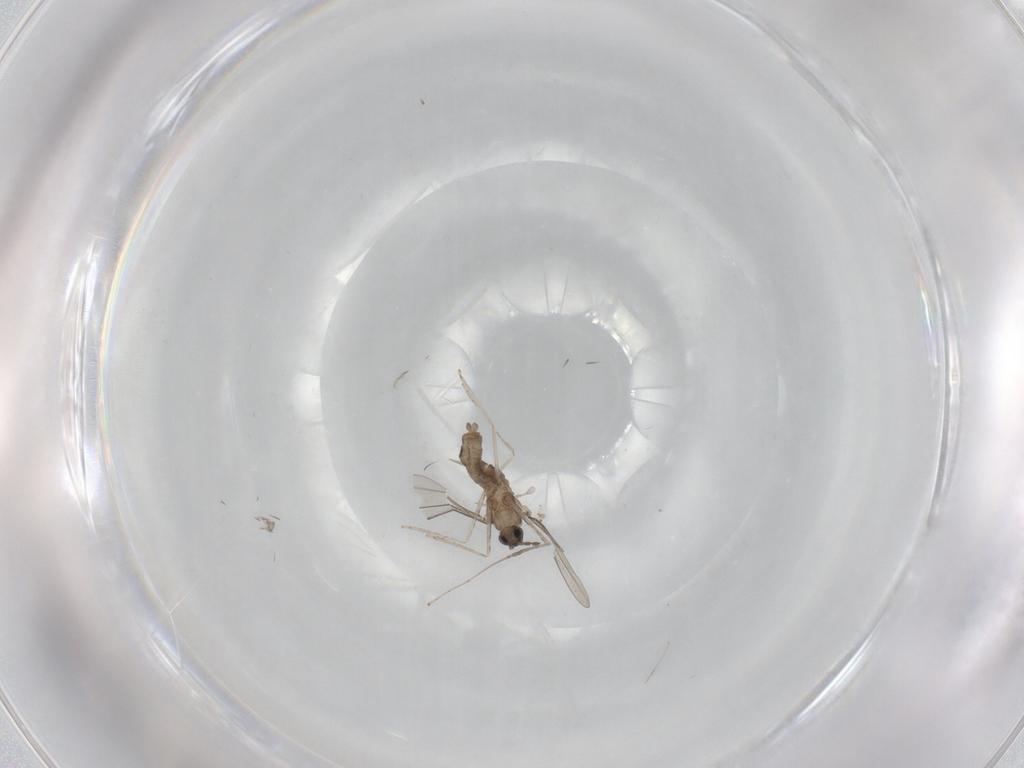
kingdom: Animalia
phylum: Arthropoda
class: Insecta
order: Diptera
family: Cecidomyiidae
